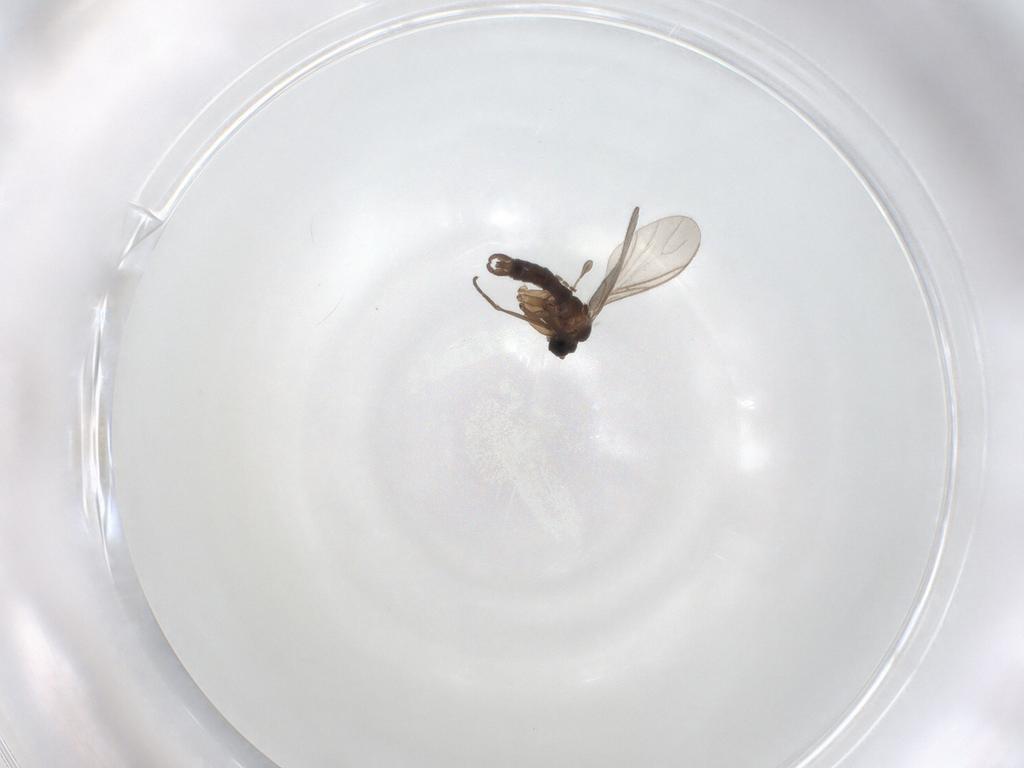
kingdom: Animalia
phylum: Arthropoda
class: Insecta
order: Diptera
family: Sciaridae
